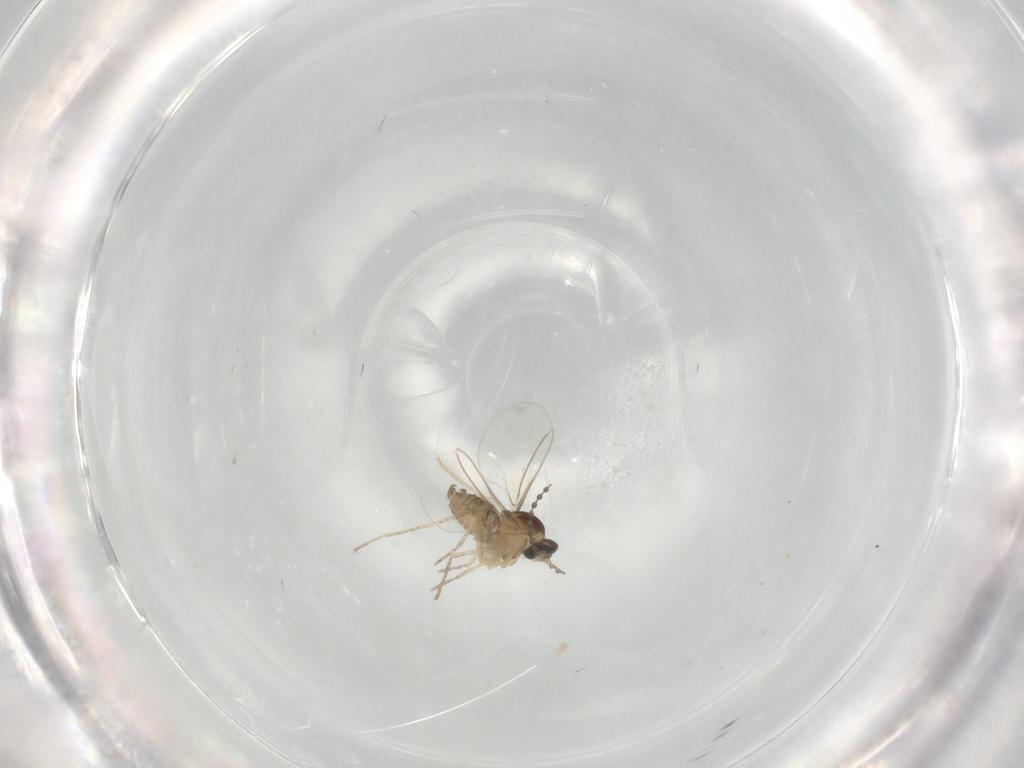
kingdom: Animalia
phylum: Arthropoda
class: Insecta
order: Diptera
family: Cecidomyiidae
